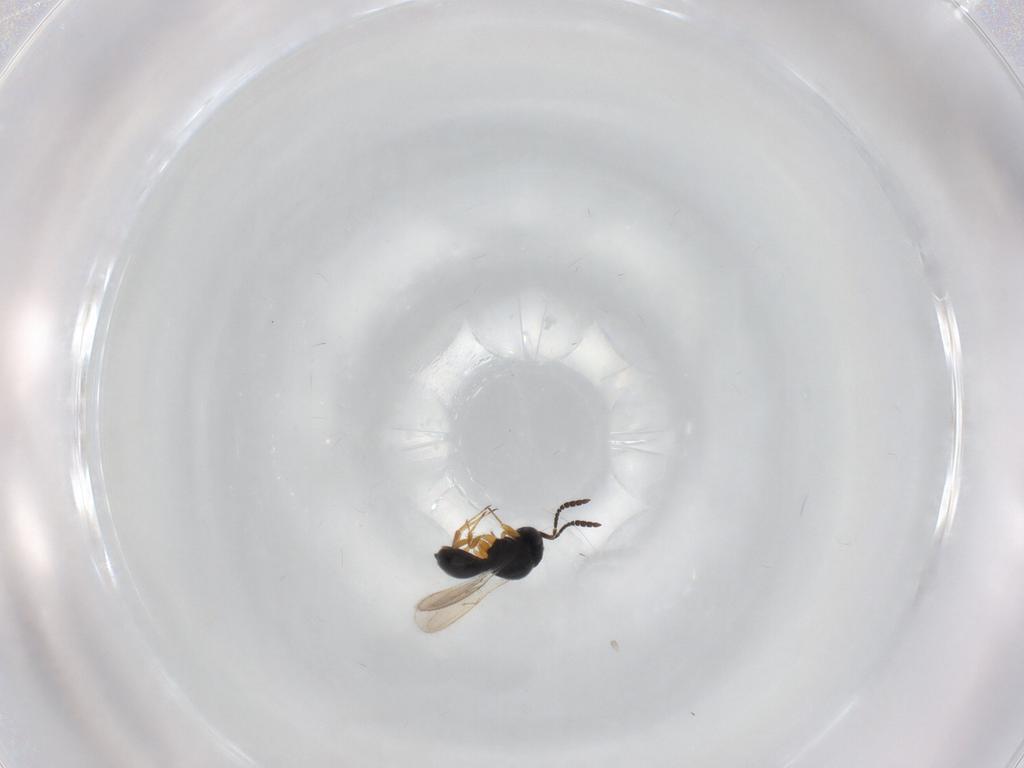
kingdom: Animalia
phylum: Arthropoda
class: Insecta
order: Hymenoptera
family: Scelionidae
